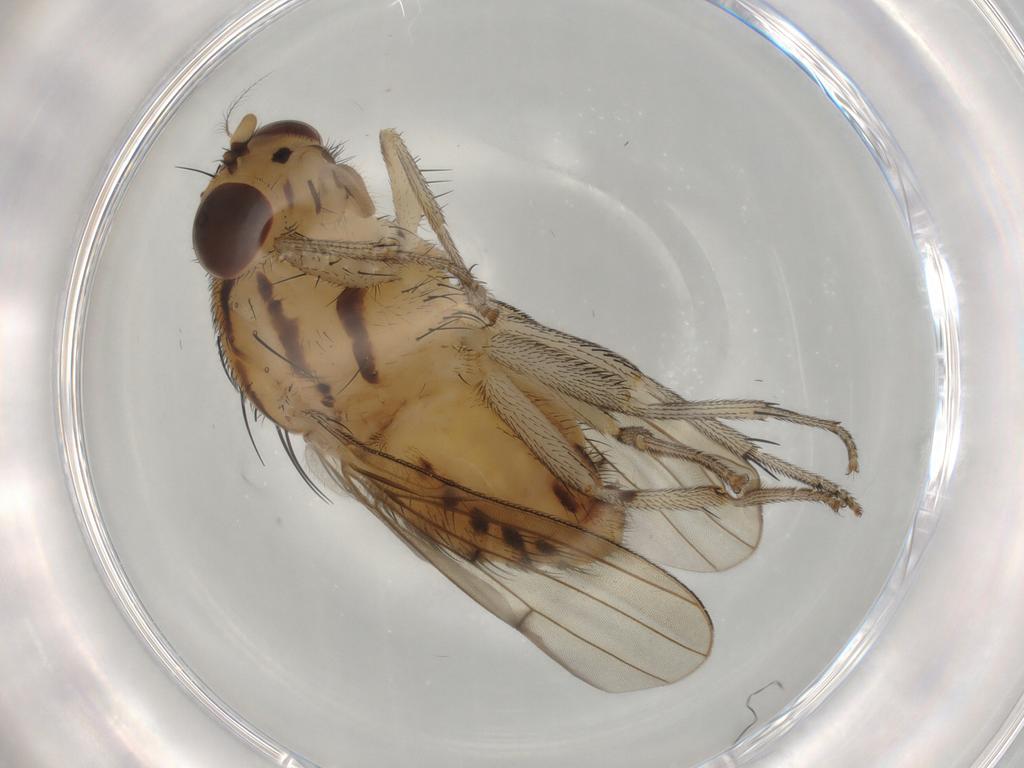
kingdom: Animalia
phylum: Arthropoda
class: Insecta
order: Diptera
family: Lauxaniidae
